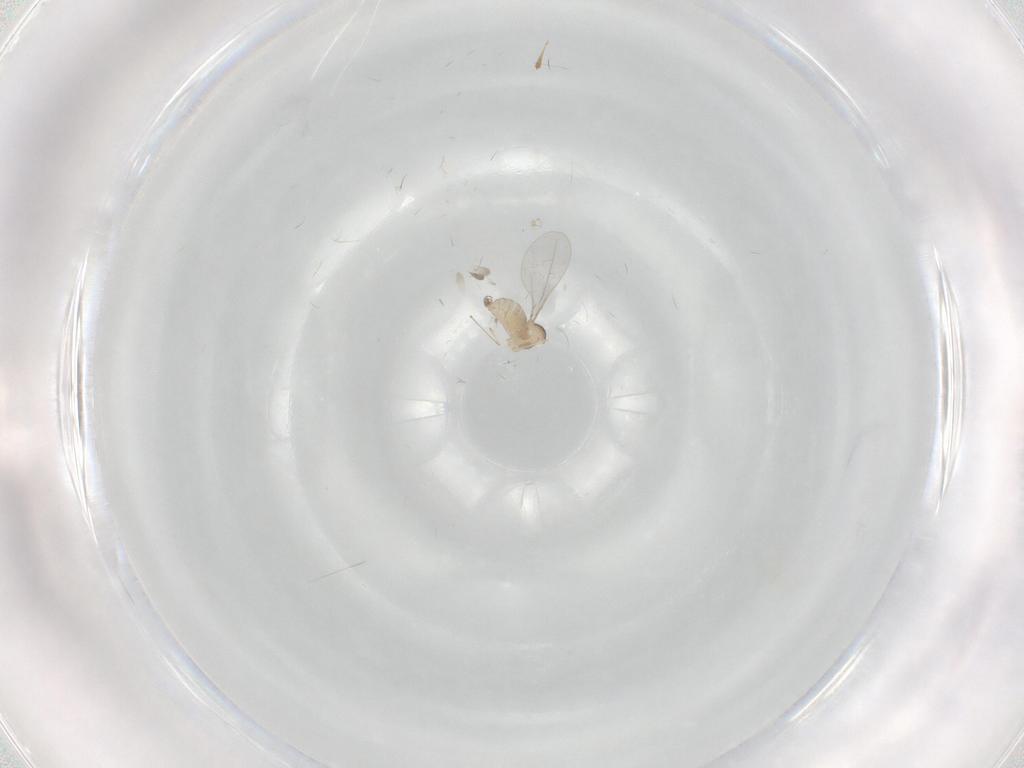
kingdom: Animalia
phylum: Arthropoda
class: Insecta
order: Diptera
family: Cecidomyiidae
